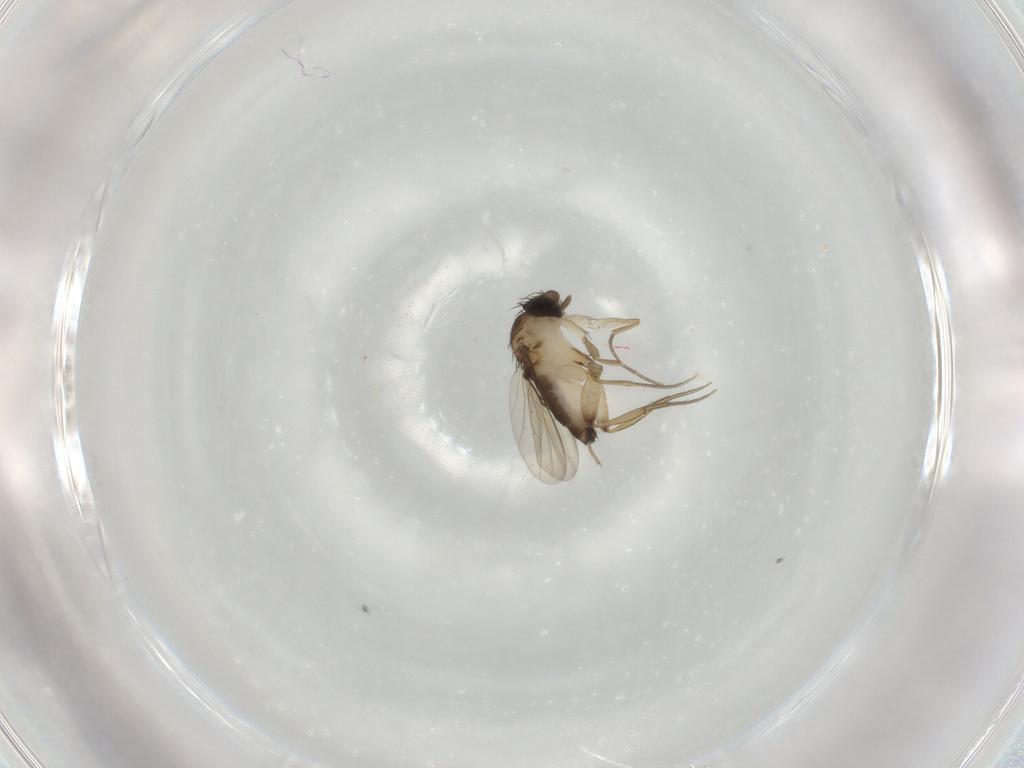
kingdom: Animalia
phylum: Arthropoda
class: Insecta
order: Diptera
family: Phoridae
